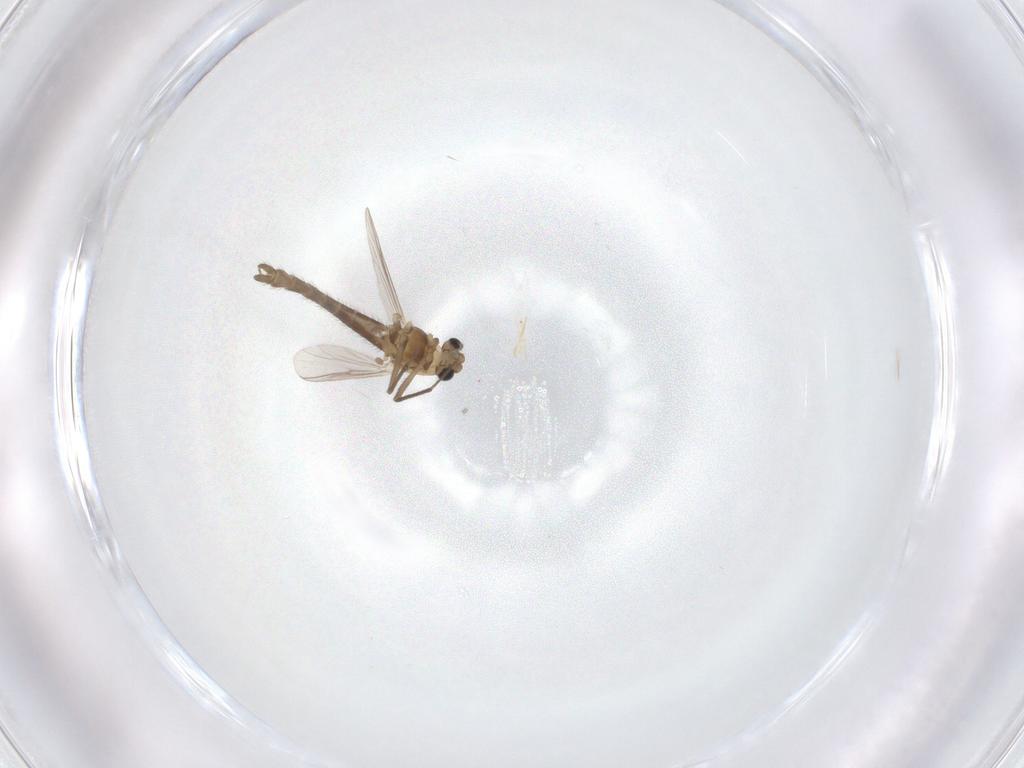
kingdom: Animalia
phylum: Arthropoda
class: Insecta
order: Diptera
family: Chironomidae
